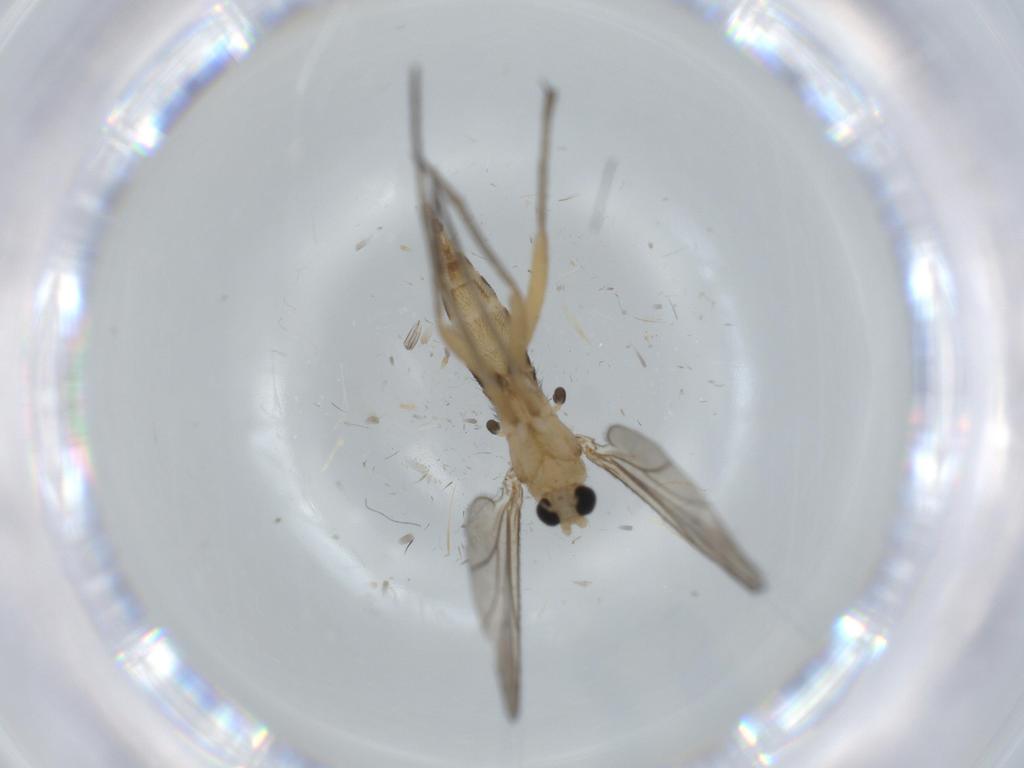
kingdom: Animalia
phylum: Arthropoda
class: Insecta
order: Diptera
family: Sciaridae
